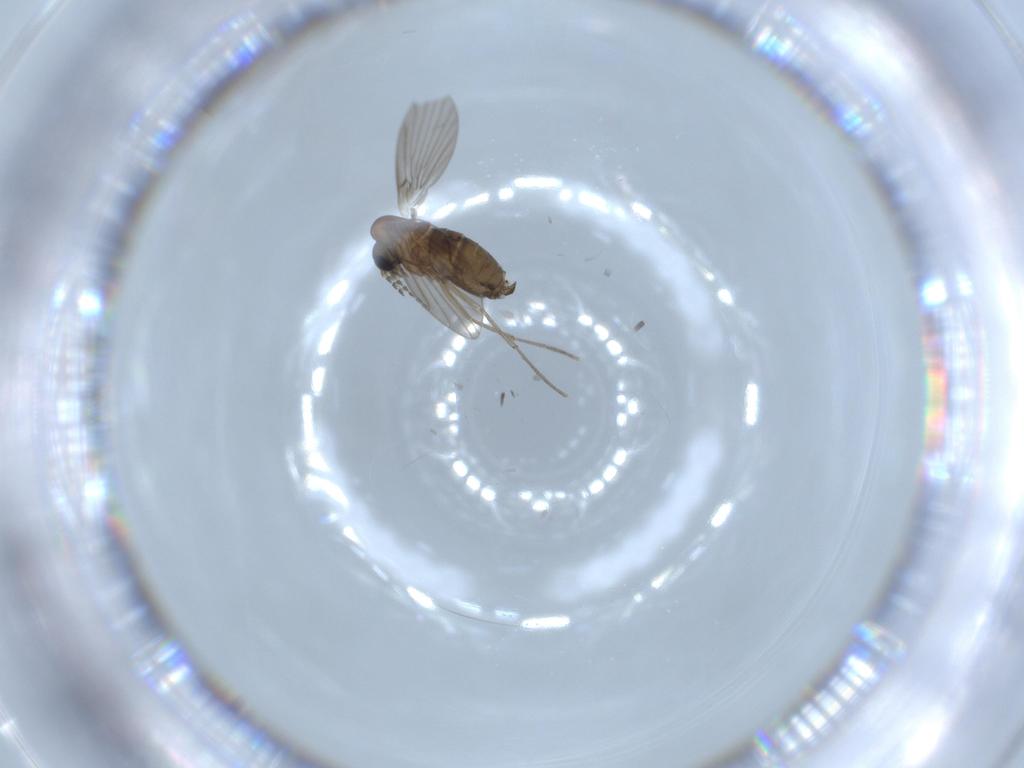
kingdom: Animalia
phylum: Arthropoda
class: Insecta
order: Diptera
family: Psychodidae
